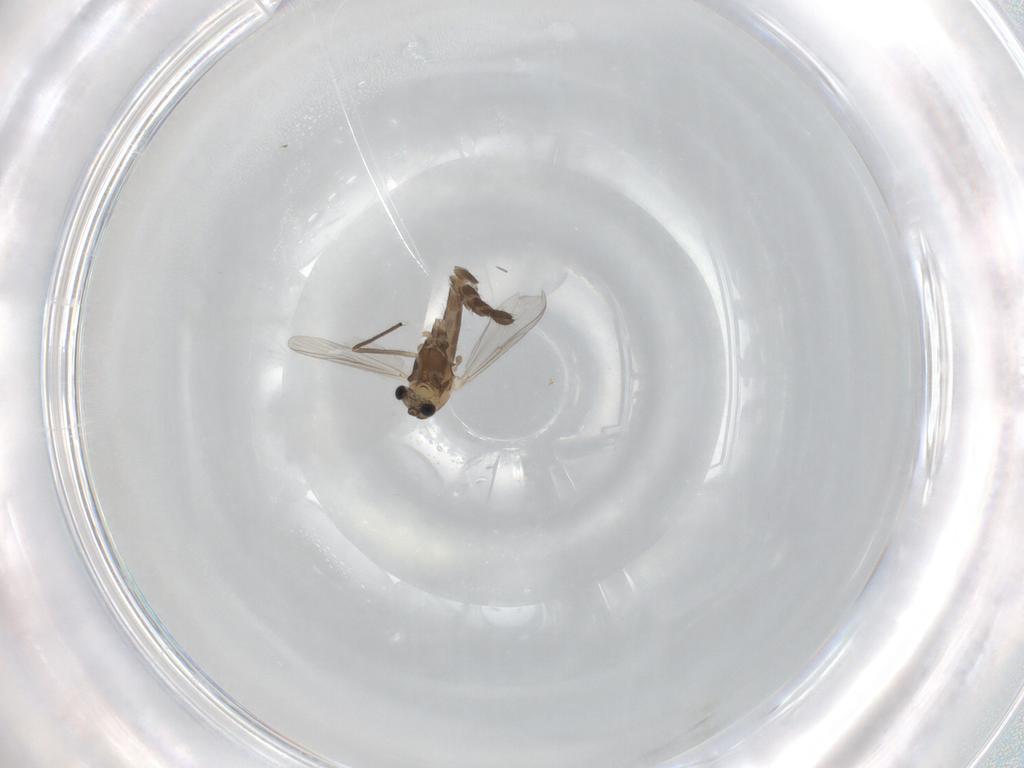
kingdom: Animalia
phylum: Arthropoda
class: Insecta
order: Diptera
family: Chironomidae
